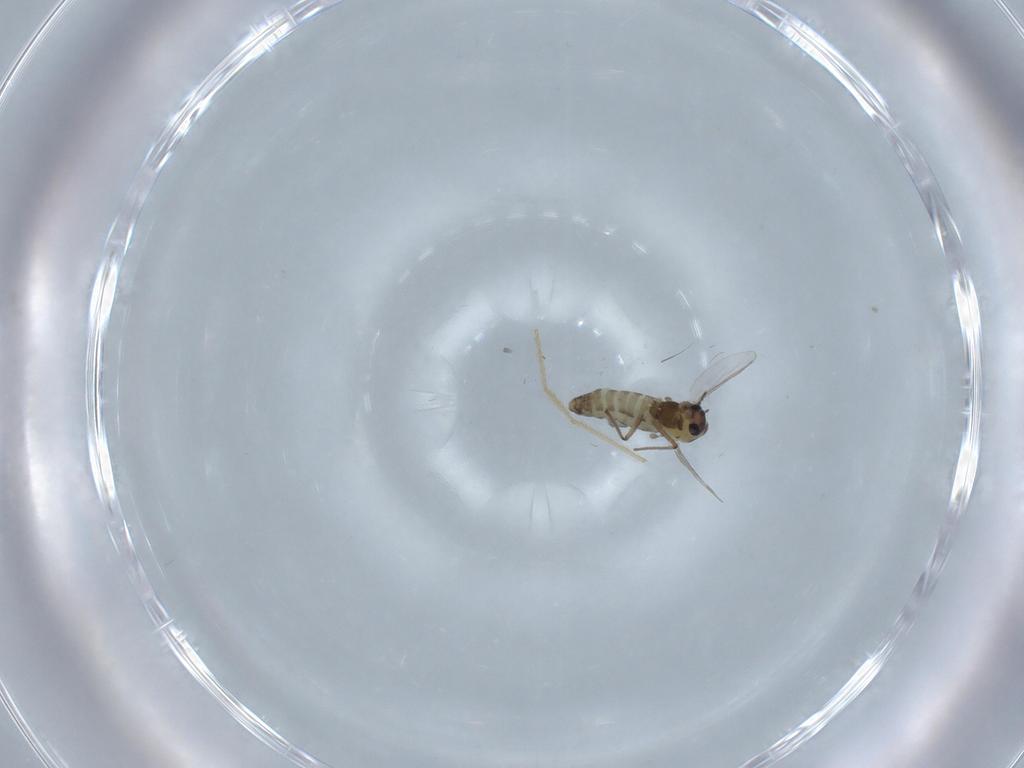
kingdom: Animalia
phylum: Arthropoda
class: Insecta
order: Diptera
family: Chironomidae
